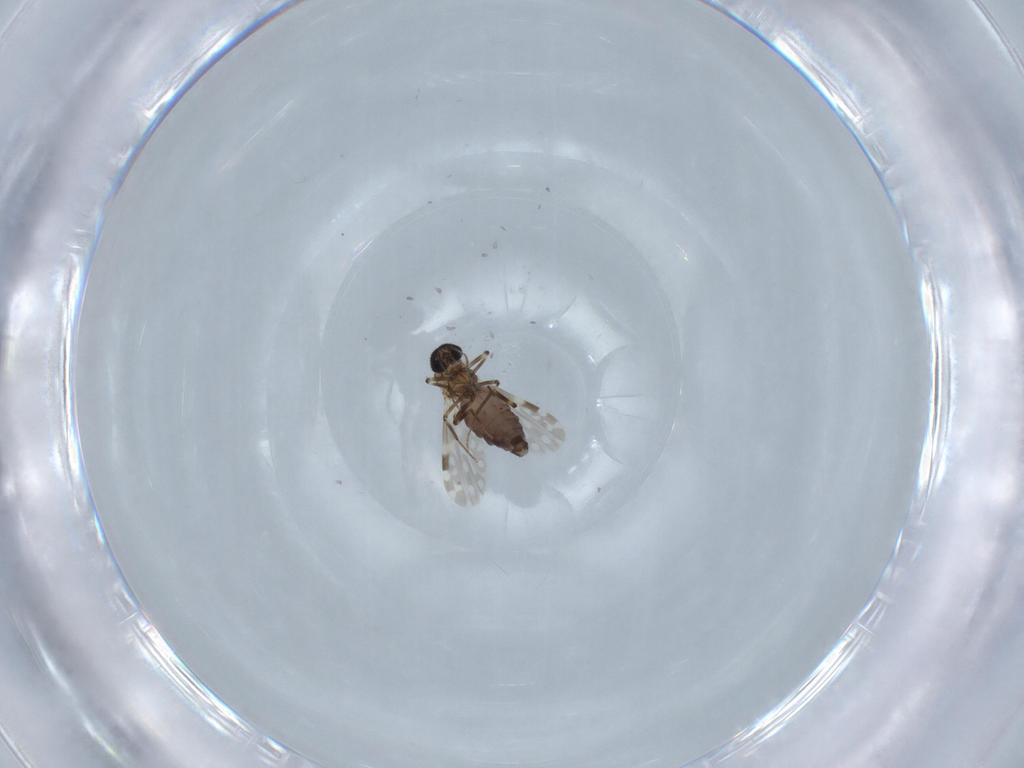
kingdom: Animalia
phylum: Arthropoda
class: Insecta
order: Diptera
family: Ceratopogonidae
